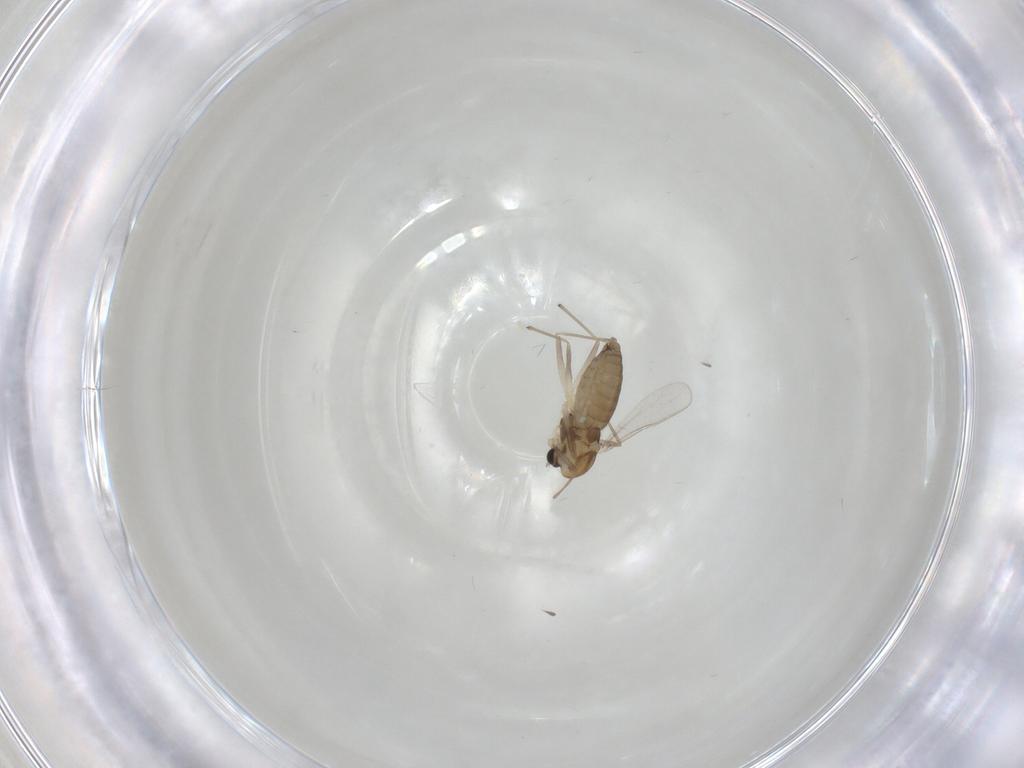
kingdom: Animalia
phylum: Arthropoda
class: Insecta
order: Diptera
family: Chironomidae
